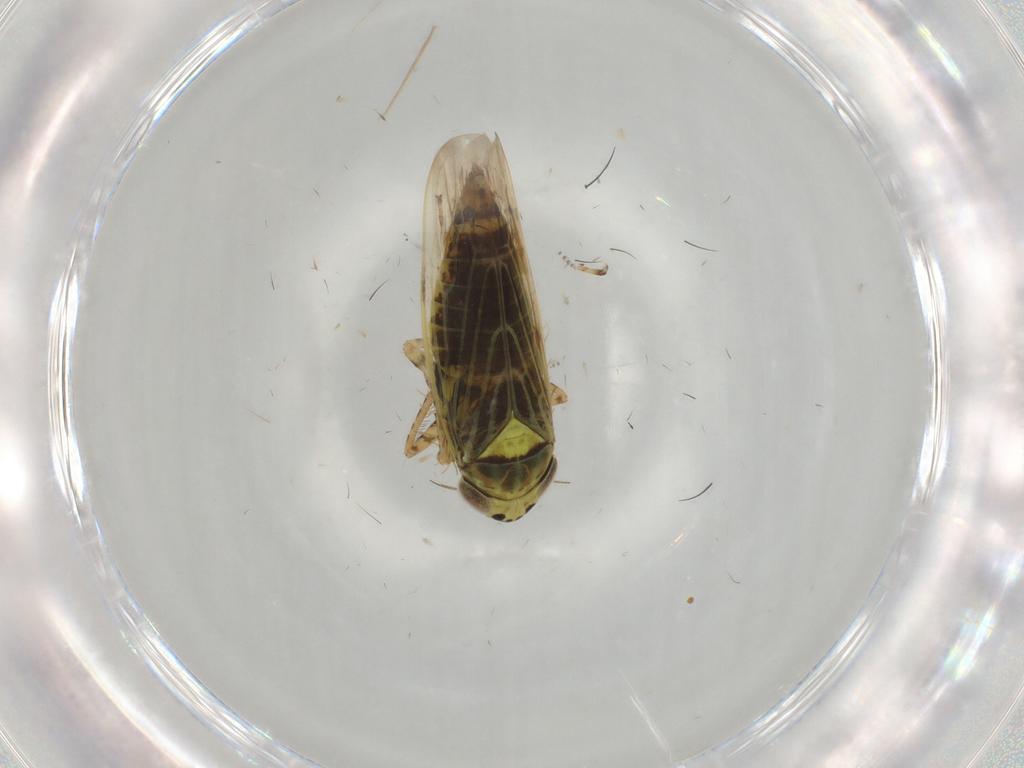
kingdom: Animalia
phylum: Arthropoda
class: Insecta
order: Hemiptera
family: Cicadellidae
